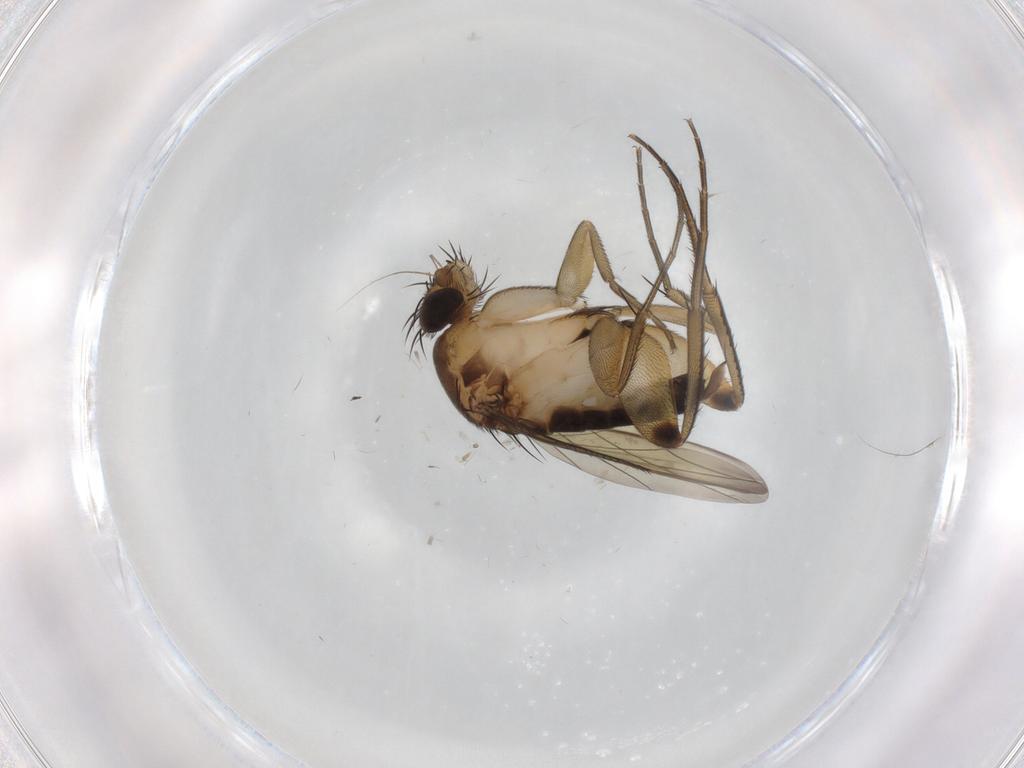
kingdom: Animalia
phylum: Arthropoda
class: Insecta
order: Diptera
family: Phoridae
